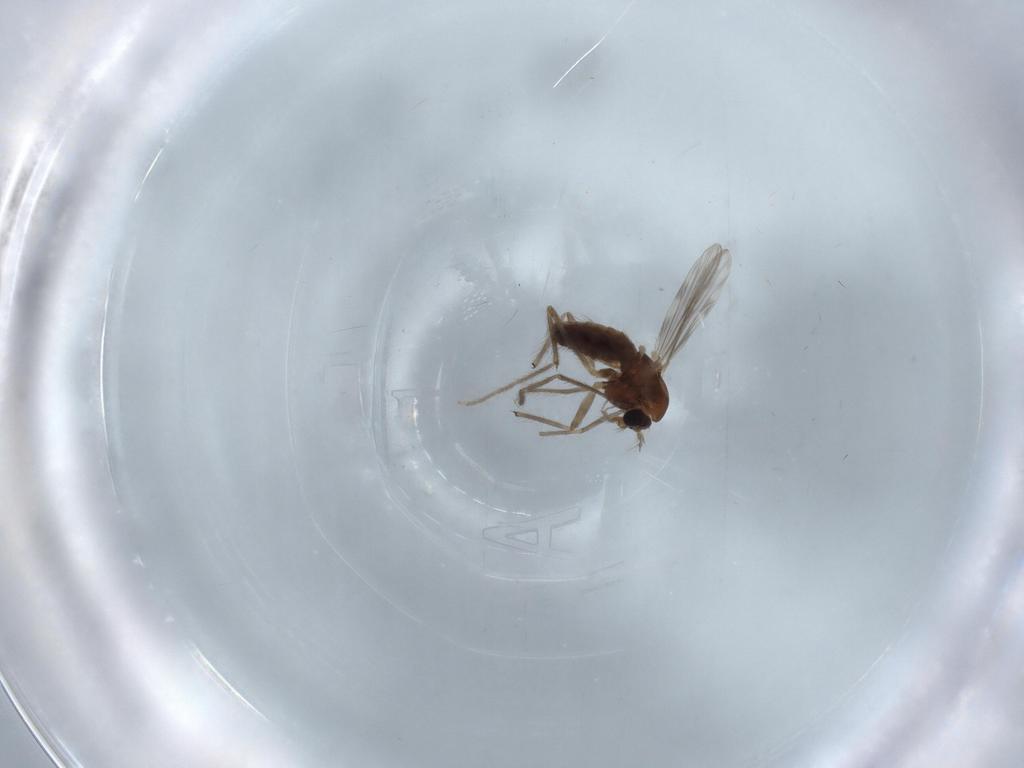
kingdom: Animalia
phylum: Arthropoda
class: Insecta
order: Diptera
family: Cecidomyiidae
